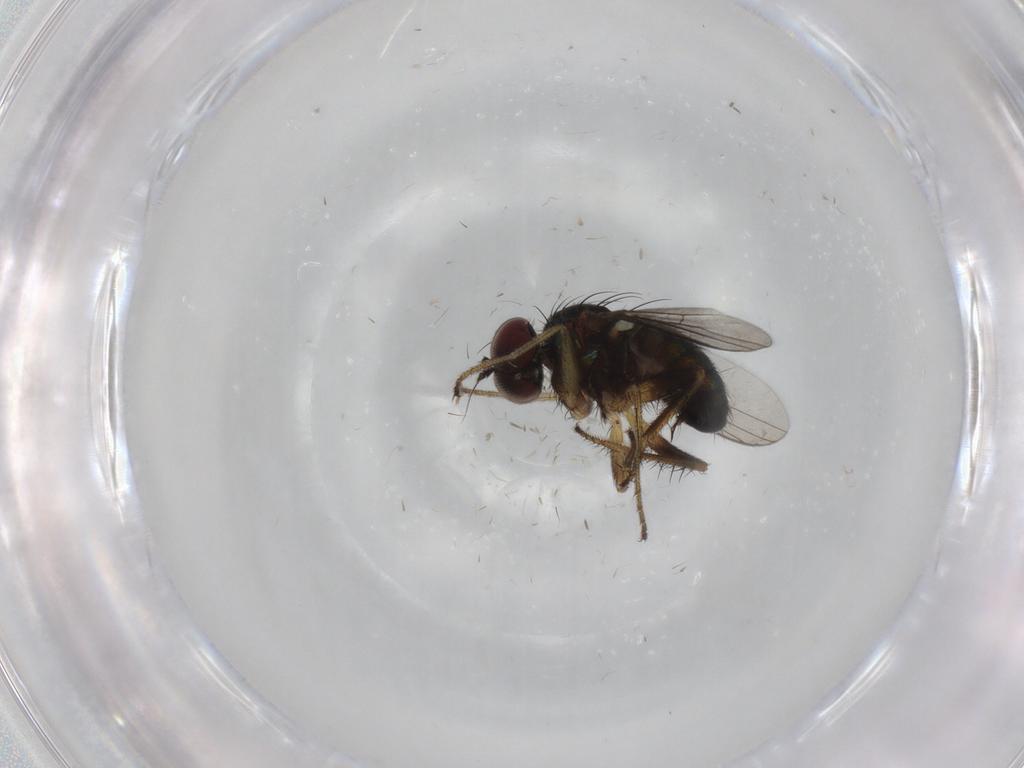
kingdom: Animalia
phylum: Arthropoda
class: Insecta
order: Diptera
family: Dolichopodidae
